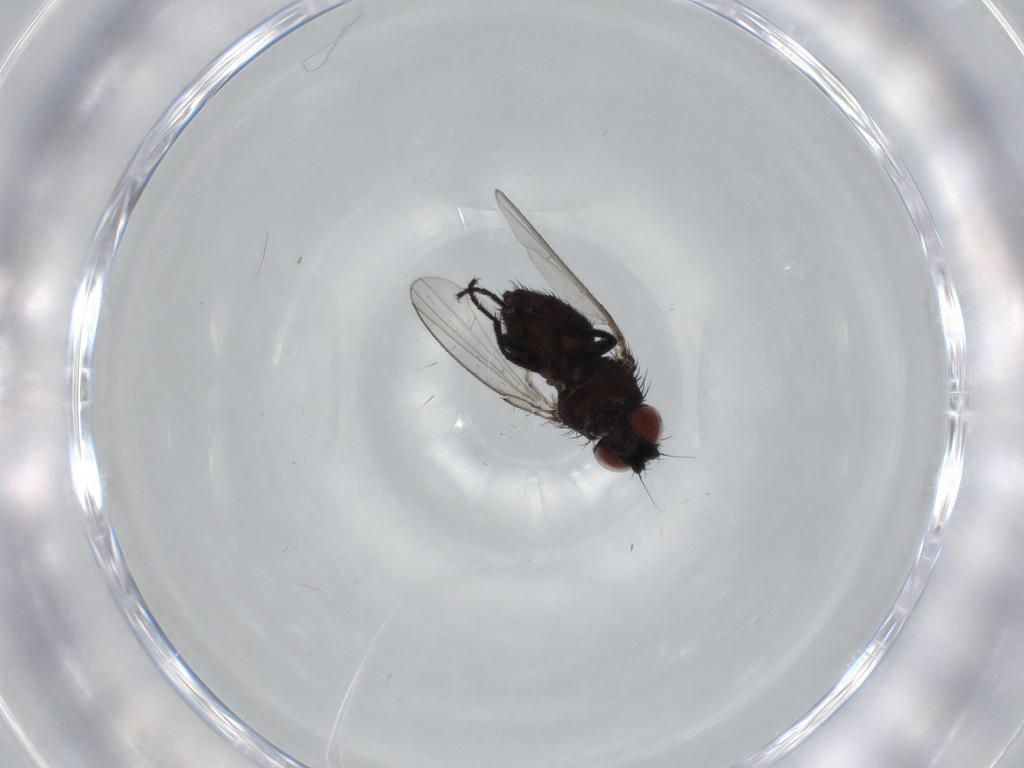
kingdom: Animalia
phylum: Arthropoda
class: Insecta
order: Diptera
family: Milichiidae
